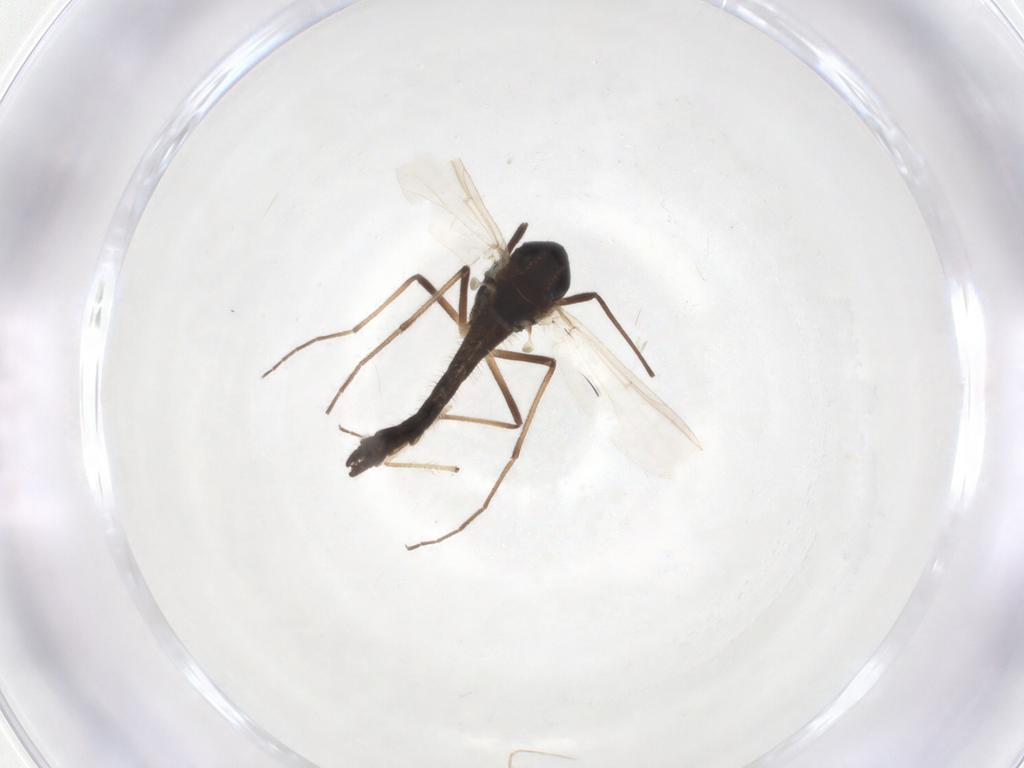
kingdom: Animalia
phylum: Arthropoda
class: Insecta
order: Diptera
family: Chironomidae
